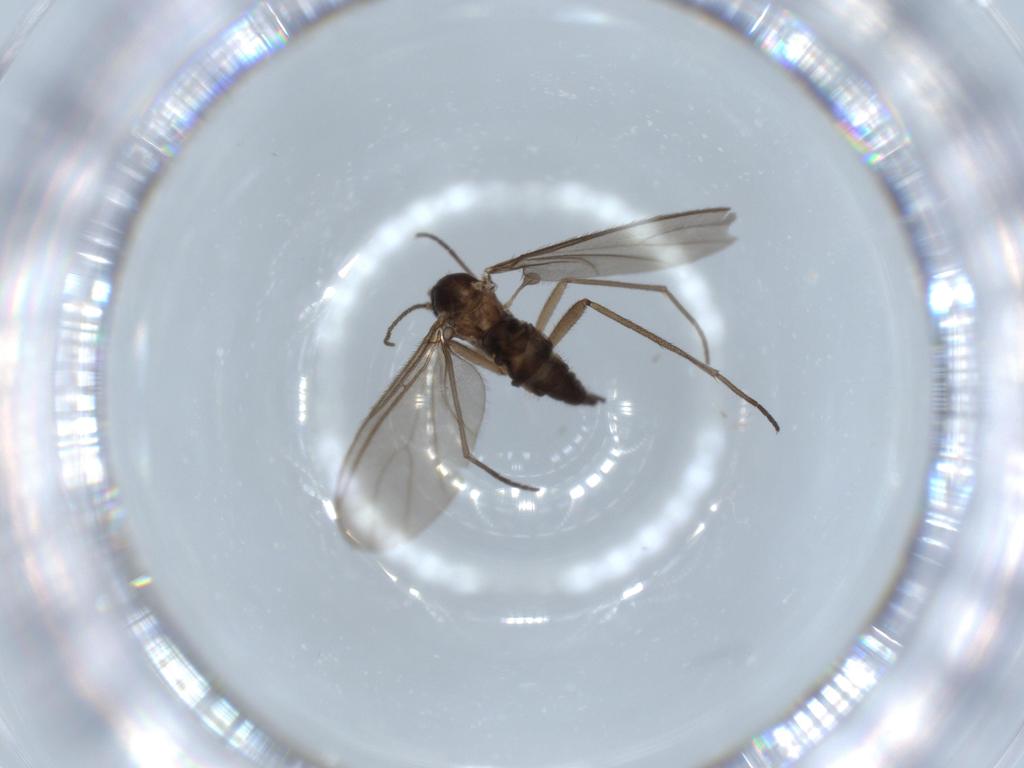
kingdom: Animalia
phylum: Arthropoda
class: Insecta
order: Diptera
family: Sciaridae
